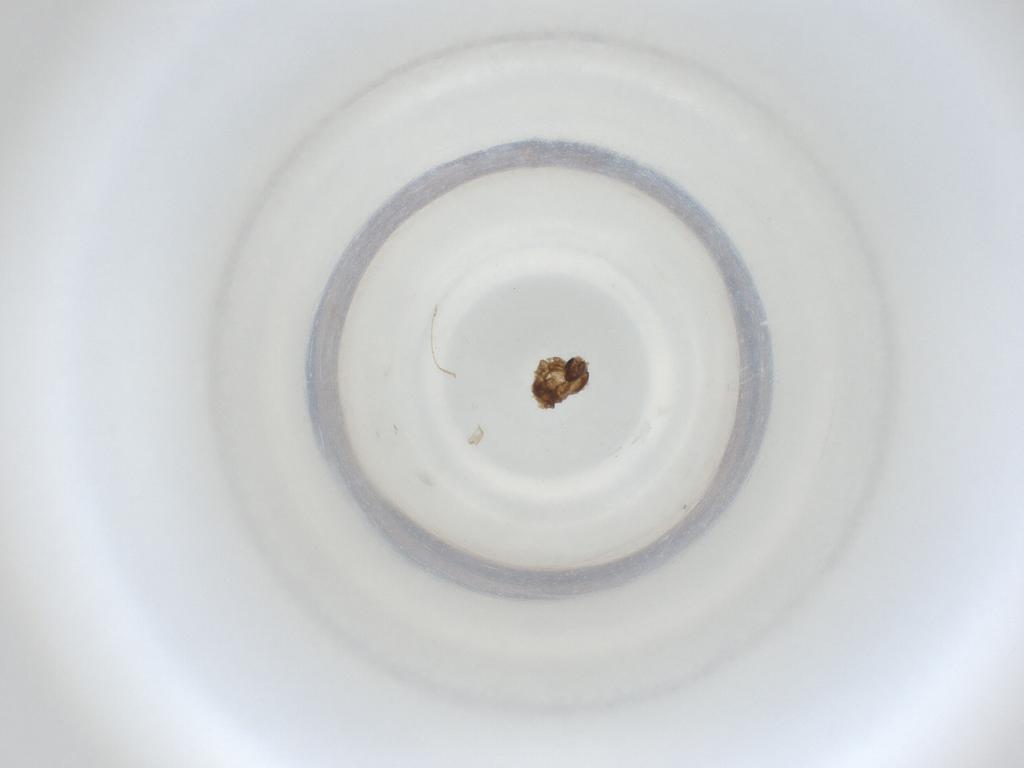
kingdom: Animalia
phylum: Arthropoda
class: Insecta
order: Diptera
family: Cecidomyiidae
